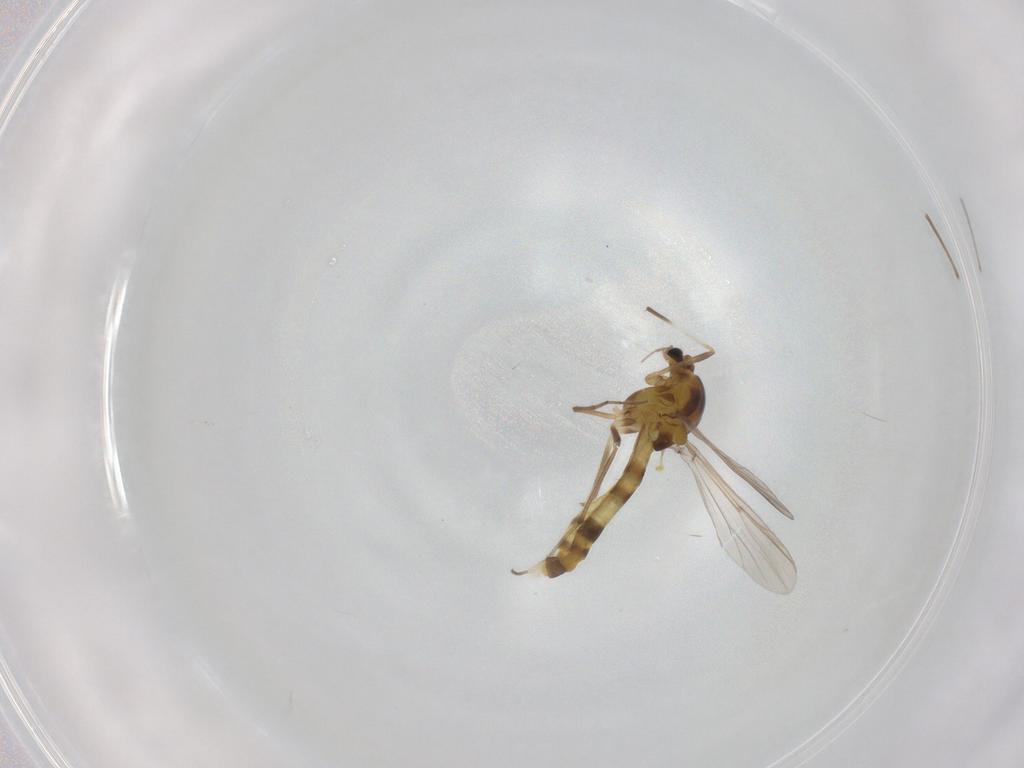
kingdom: Animalia
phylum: Arthropoda
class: Insecta
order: Diptera
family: Chironomidae
